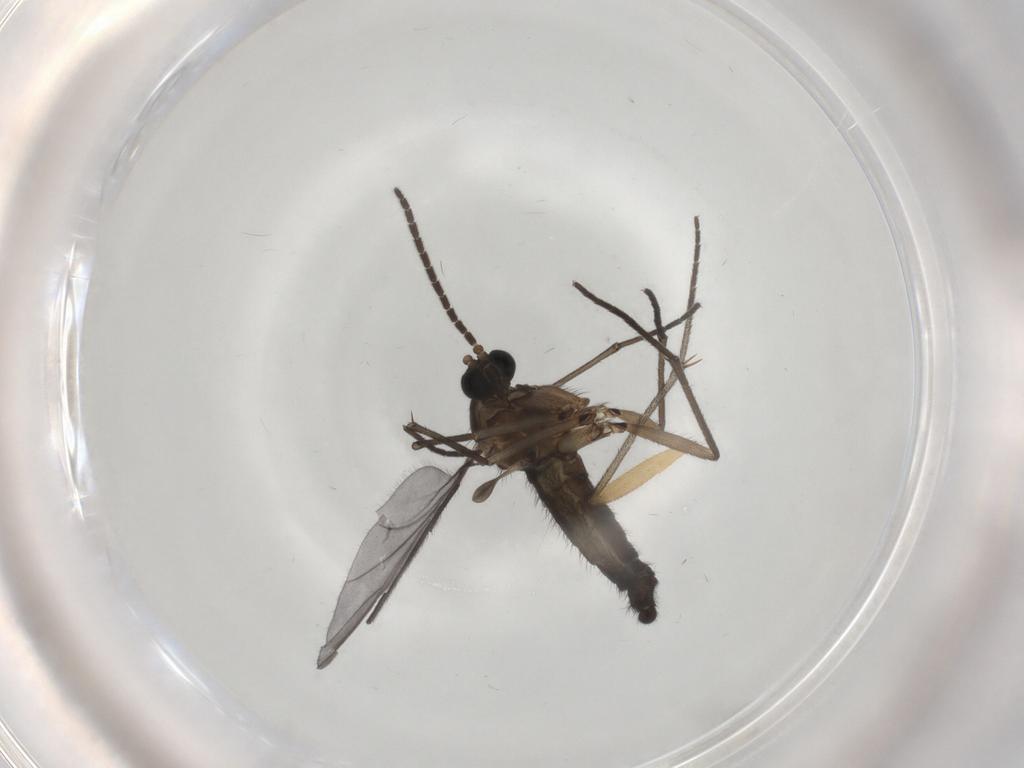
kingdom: Animalia
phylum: Arthropoda
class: Insecta
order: Diptera
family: Sciaridae
